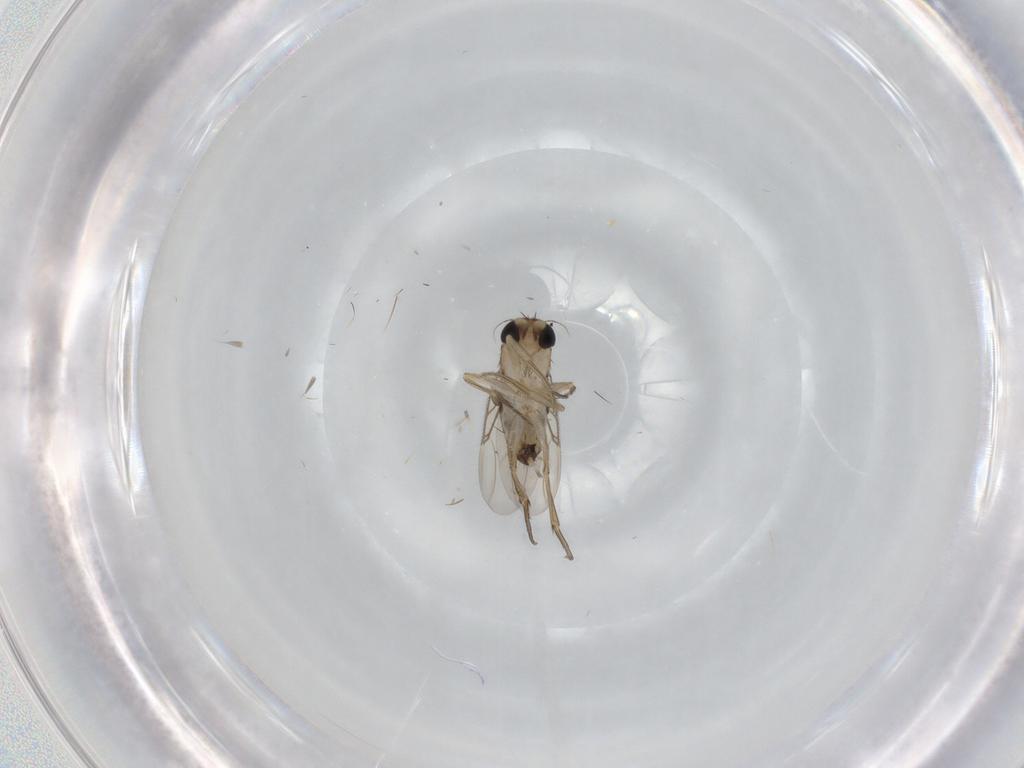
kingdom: Animalia
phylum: Arthropoda
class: Insecta
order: Diptera
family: Phoridae
